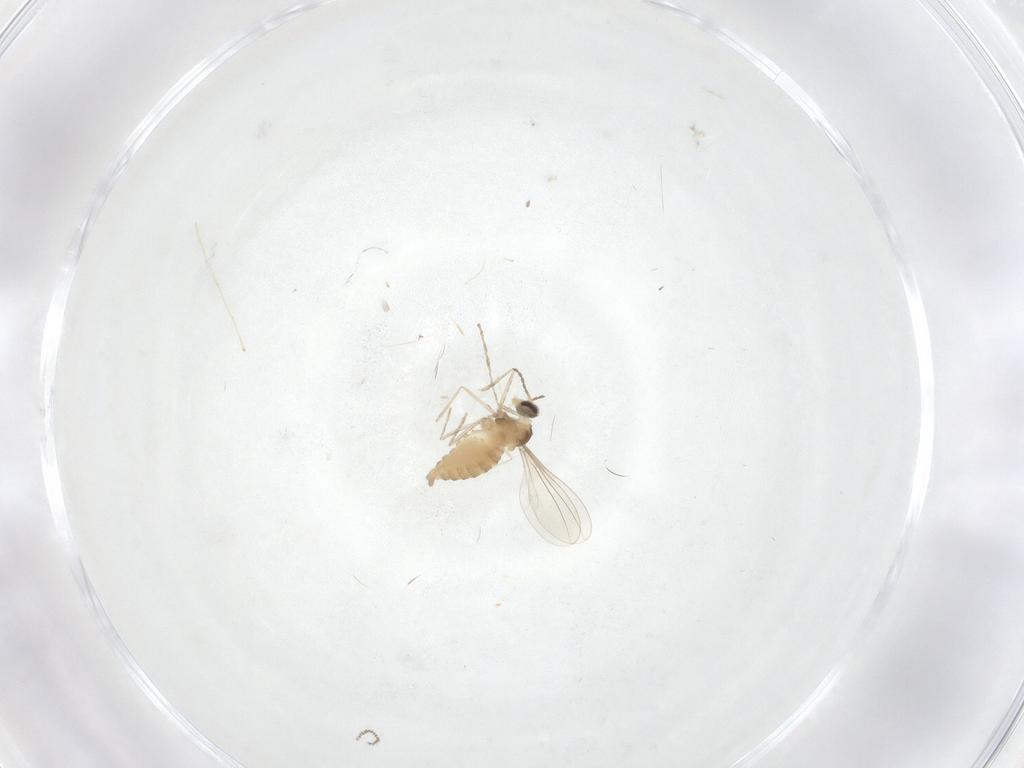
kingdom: Animalia
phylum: Arthropoda
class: Insecta
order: Diptera
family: Cecidomyiidae
